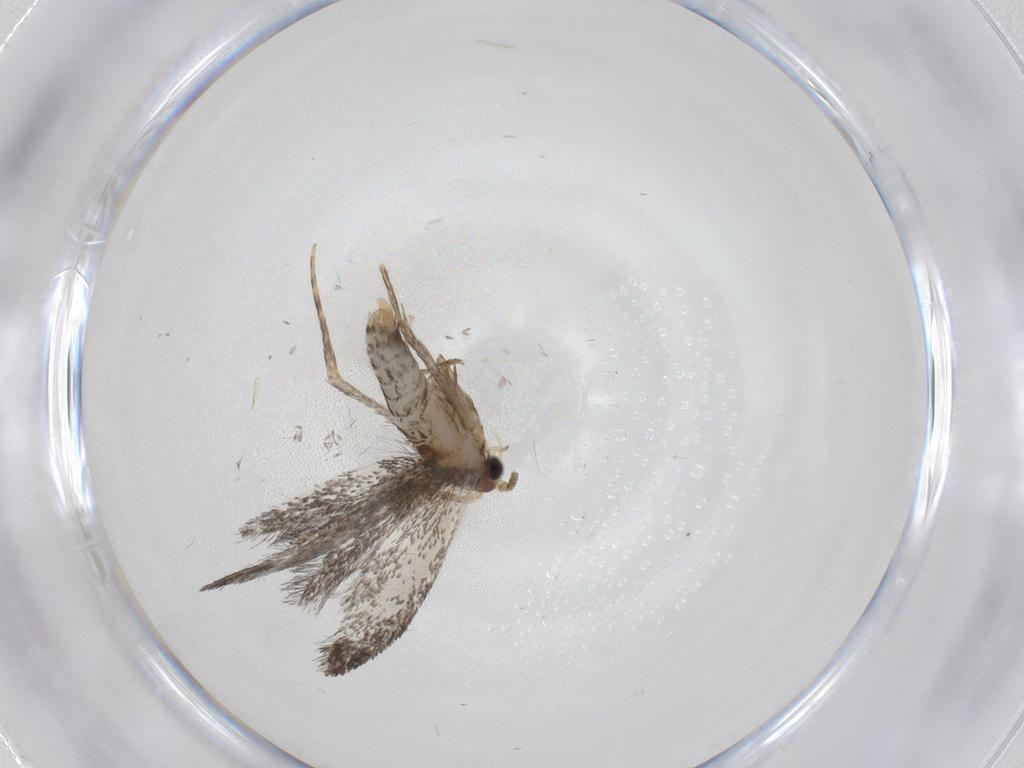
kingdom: Animalia
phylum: Arthropoda
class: Insecta
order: Lepidoptera
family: Tineidae
